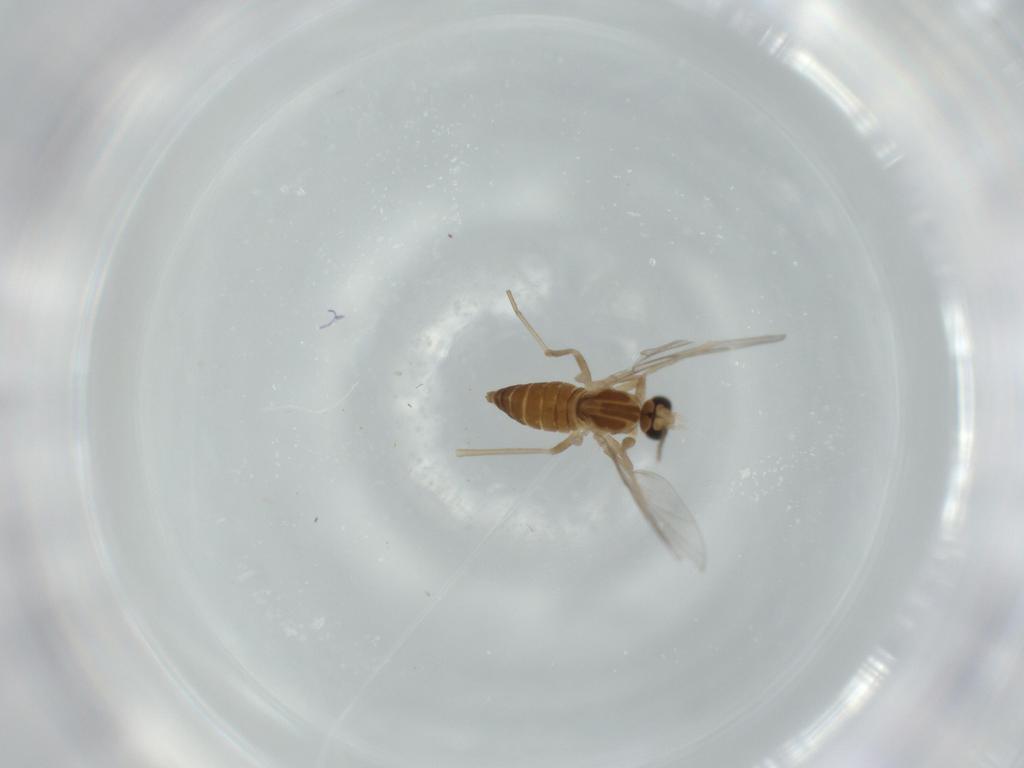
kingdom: Animalia
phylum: Arthropoda
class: Insecta
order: Diptera
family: Cecidomyiidae
